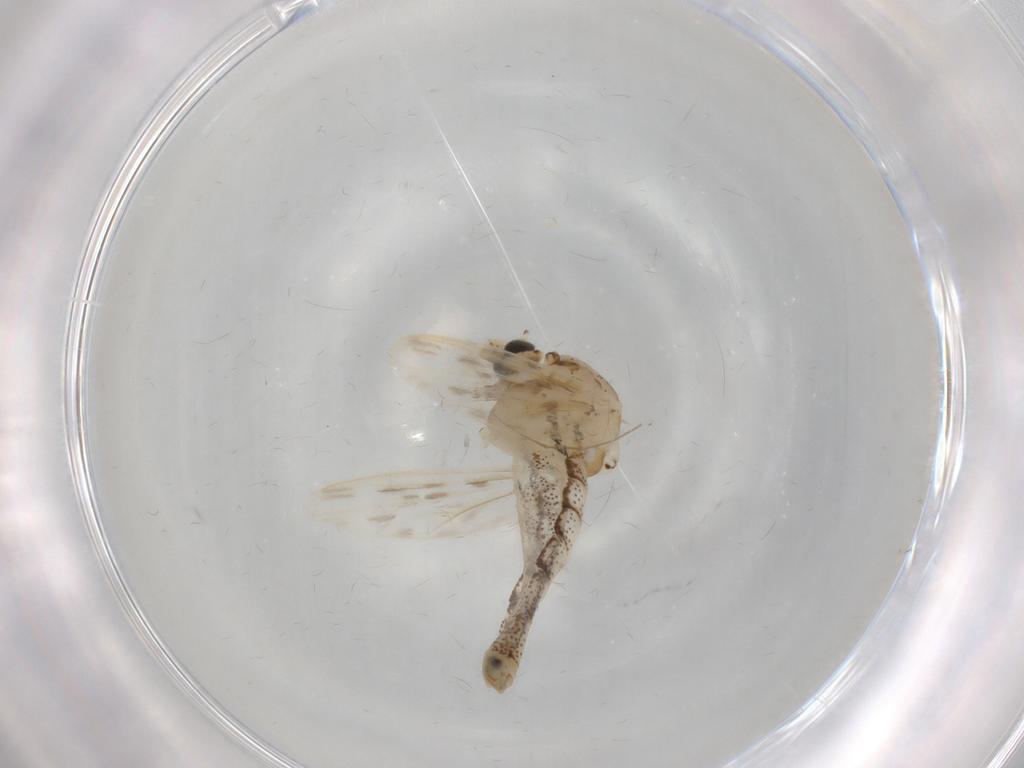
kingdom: Animalia
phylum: Arthropoda
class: Insecta
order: Diptera
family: Chaoboridae
